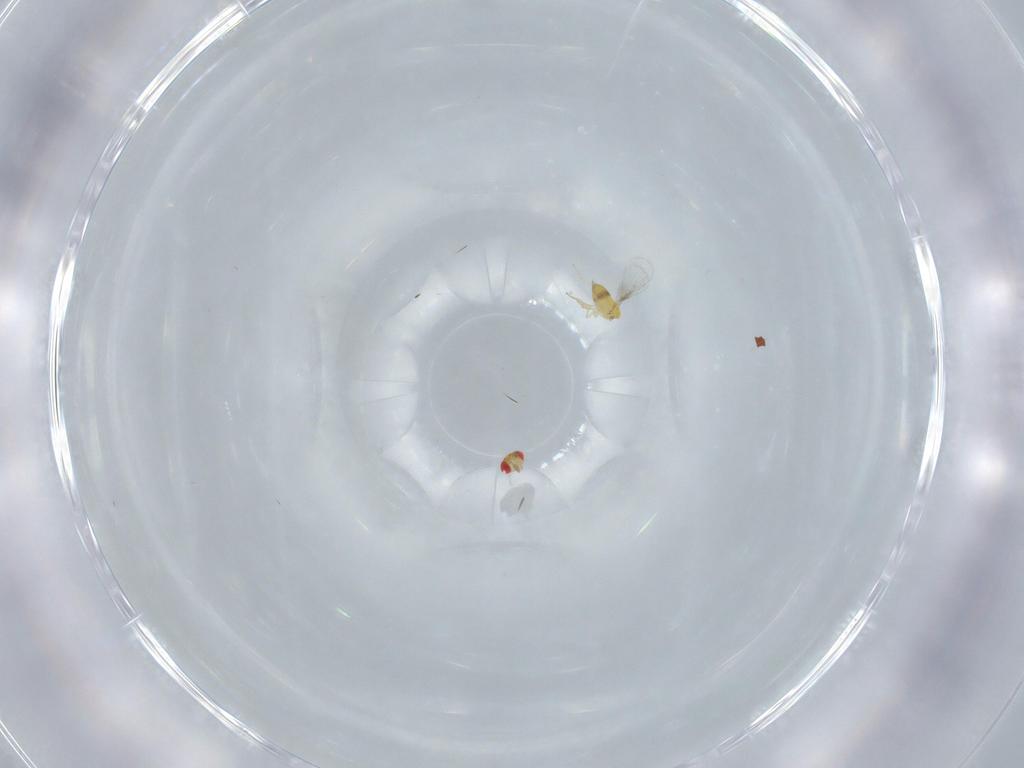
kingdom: Animalia
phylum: Arthropoda
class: Insecta
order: Hymenoptera
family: Trichogrammatidae
